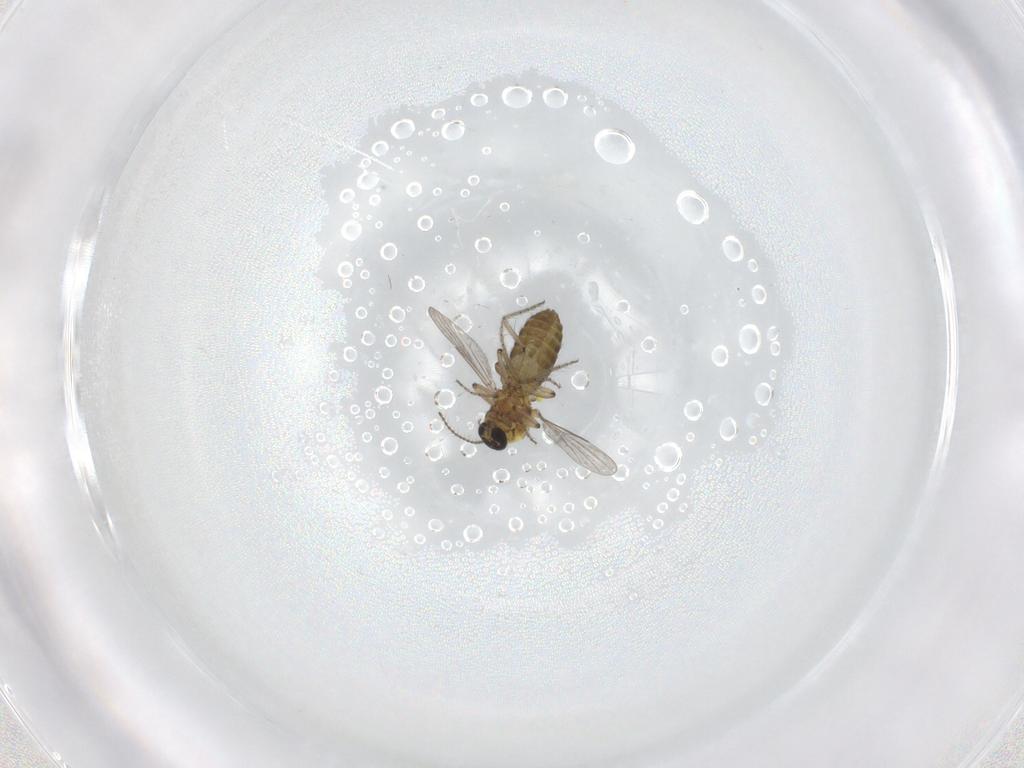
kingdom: Animalia
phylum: Arthropoda
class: Insecta
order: Diptera
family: Ceratopogonidae
